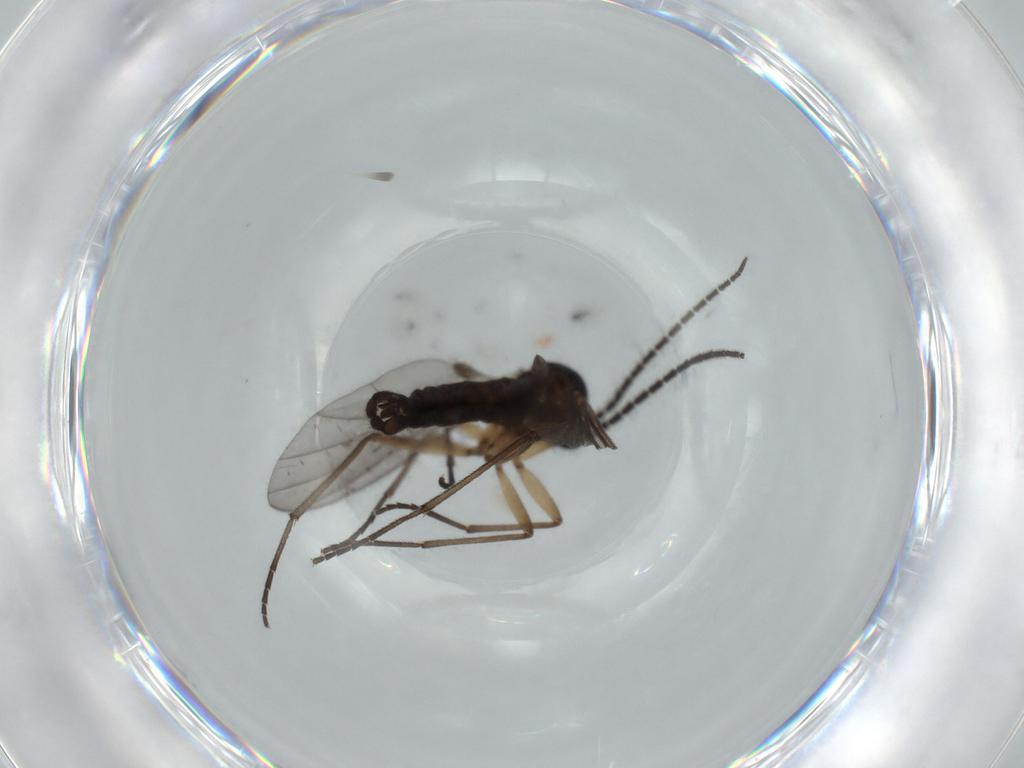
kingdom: Animalia
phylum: Arthropoda
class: Insecta
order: Diptera
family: Sciaridae
